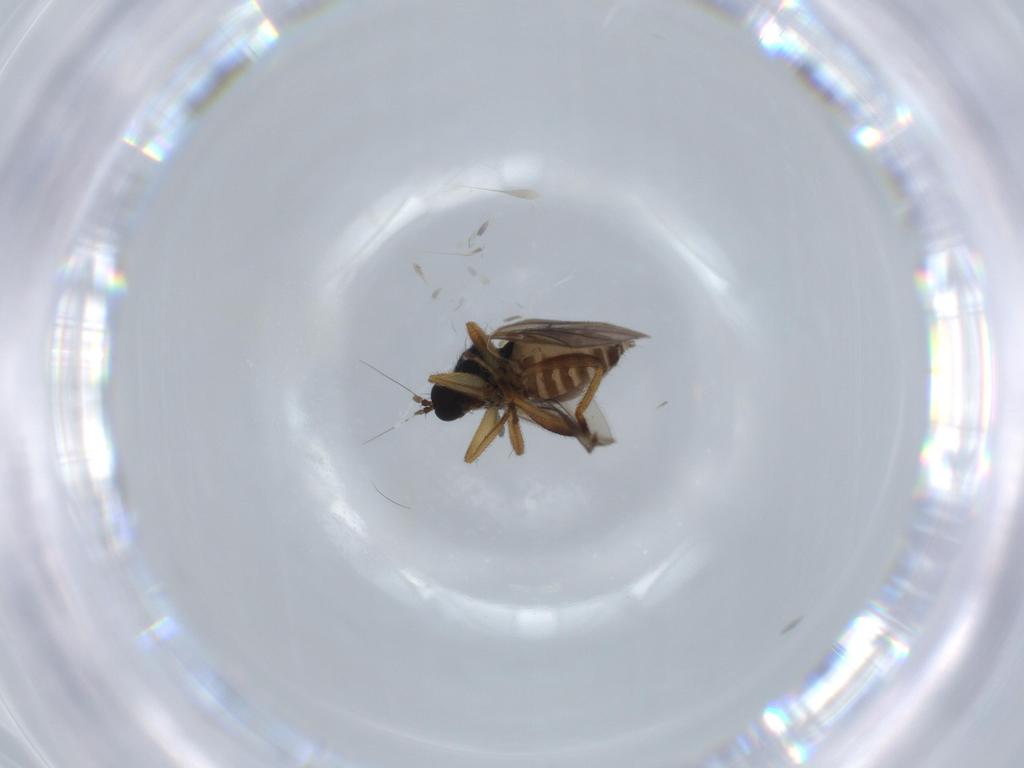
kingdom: Animalia
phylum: Arthropoda
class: Insecta
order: Diptera
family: Hybotidae
